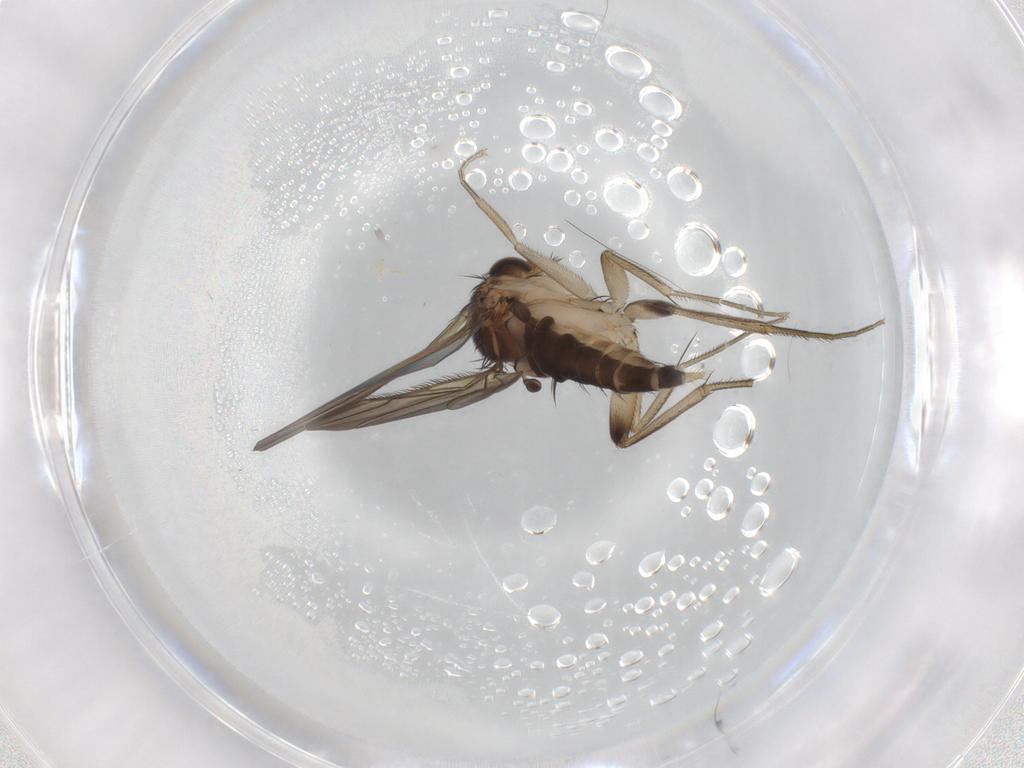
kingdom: Animalia
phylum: Arthropoda
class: Insecta
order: Diptera
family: Phoridae
